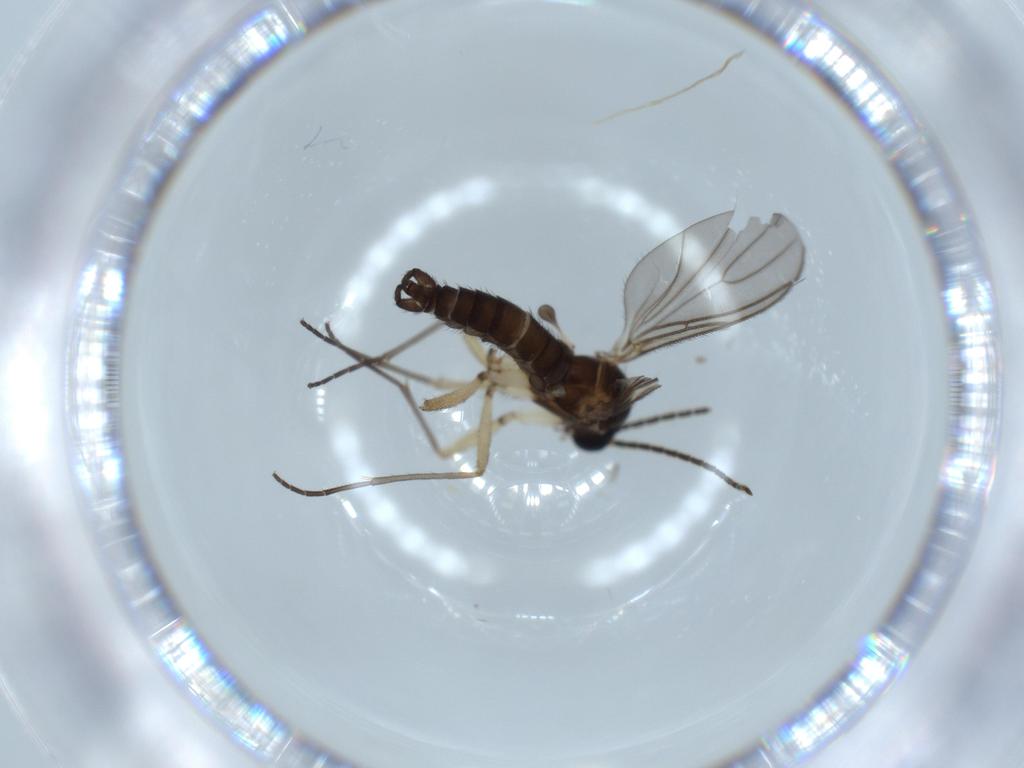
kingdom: Animalia
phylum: Arthropoda
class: Insecta
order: Diptera
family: Sciaridae
